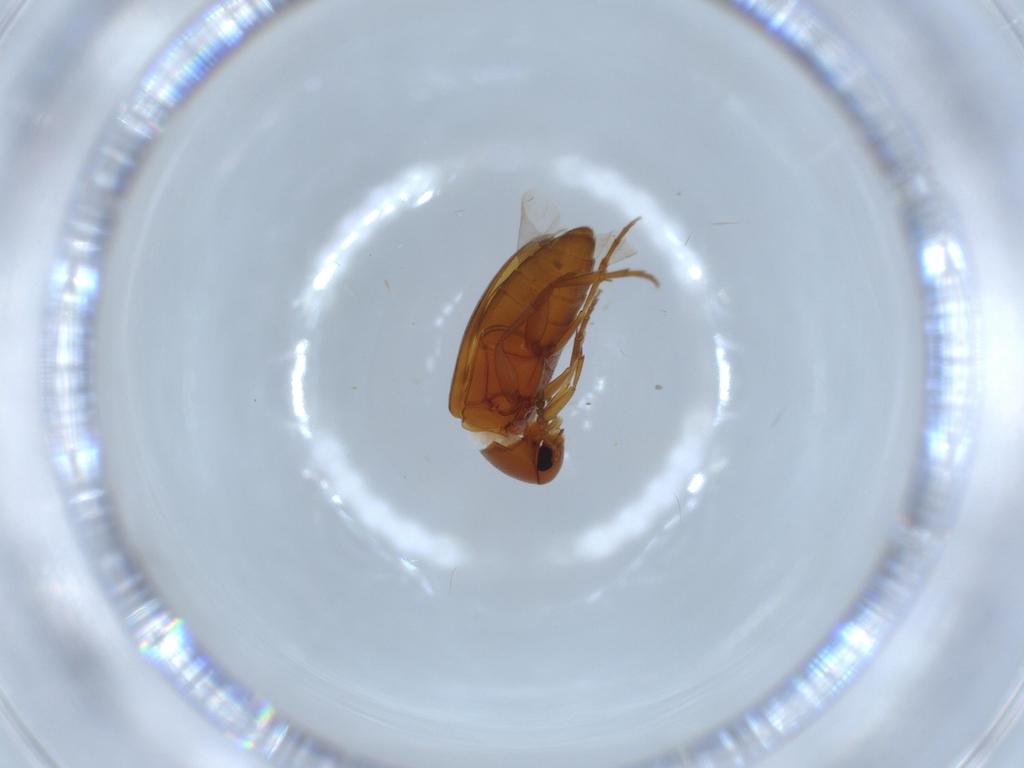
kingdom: Animalia
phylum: Arthropoda
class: Insecta
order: Coleoptera
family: Scraptiidae
